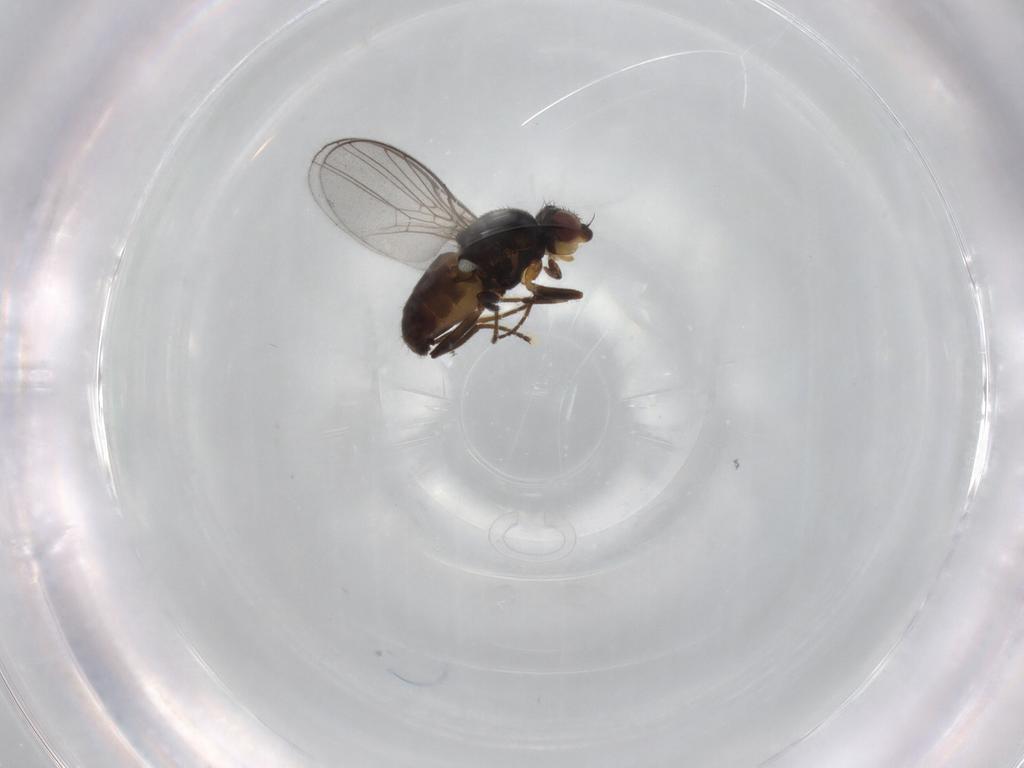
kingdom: Animalia
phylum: Arthropoda
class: Insecta
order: Diptera
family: Chloropidae
